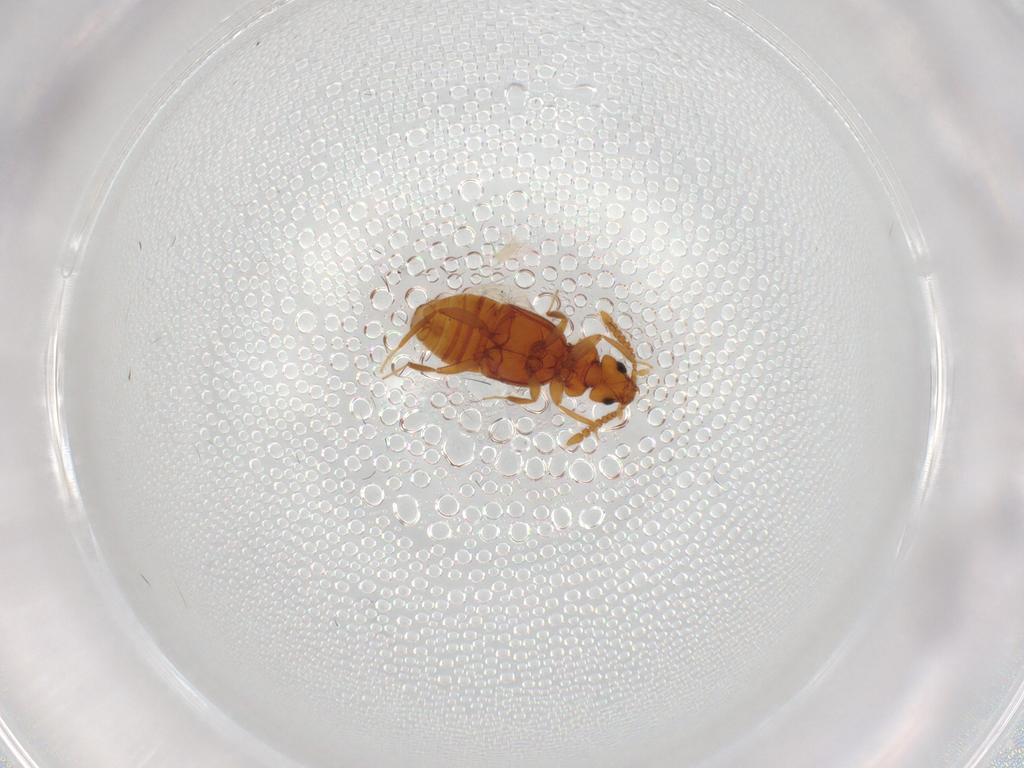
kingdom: Animalia
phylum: Arthropoda
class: Insecta
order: Coleoptera
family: Staphylinidae
